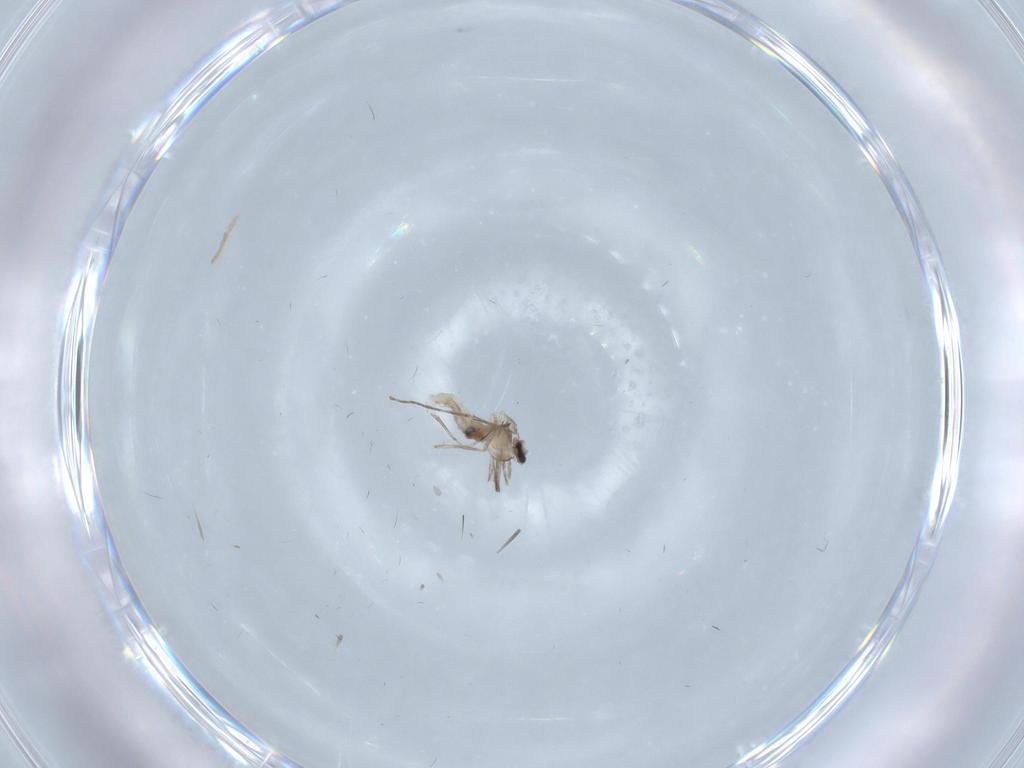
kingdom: Animalia
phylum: Arthropoda
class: Insecta
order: Diptera
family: Cecidomyiidae
